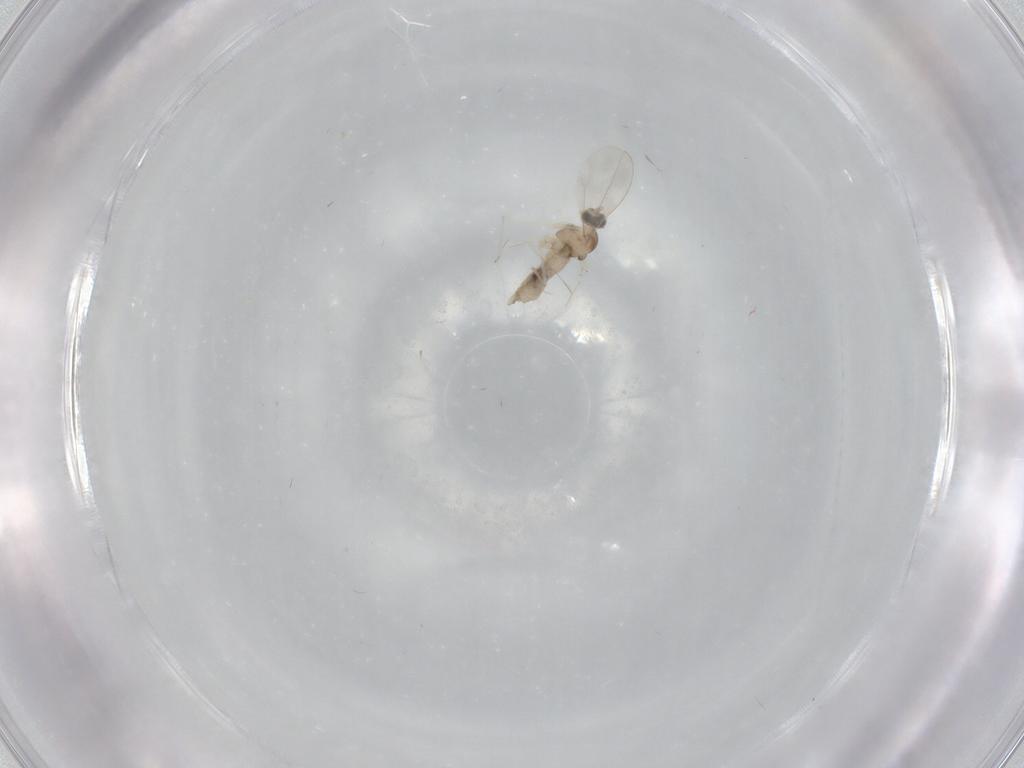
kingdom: Animalia
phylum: Arthropoda
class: Insecta
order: Diptera
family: Cecidomyiidae
